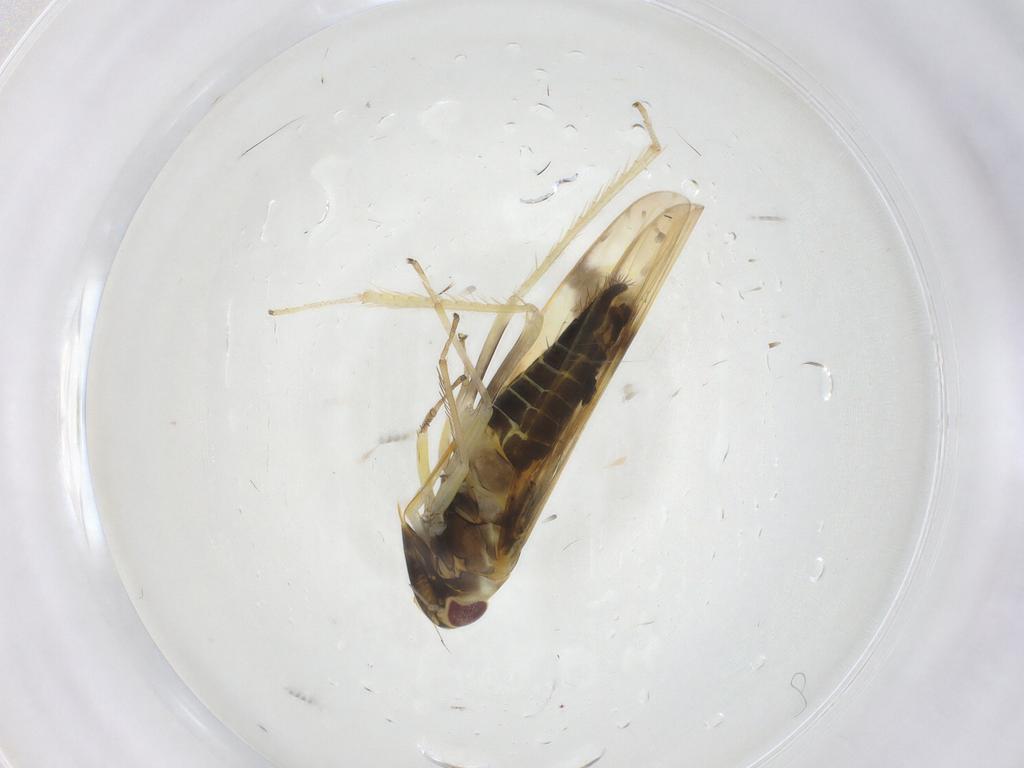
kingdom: Animalia
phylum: Arthropoda
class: Insecta
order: Hemiptera
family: Cicadellidae
